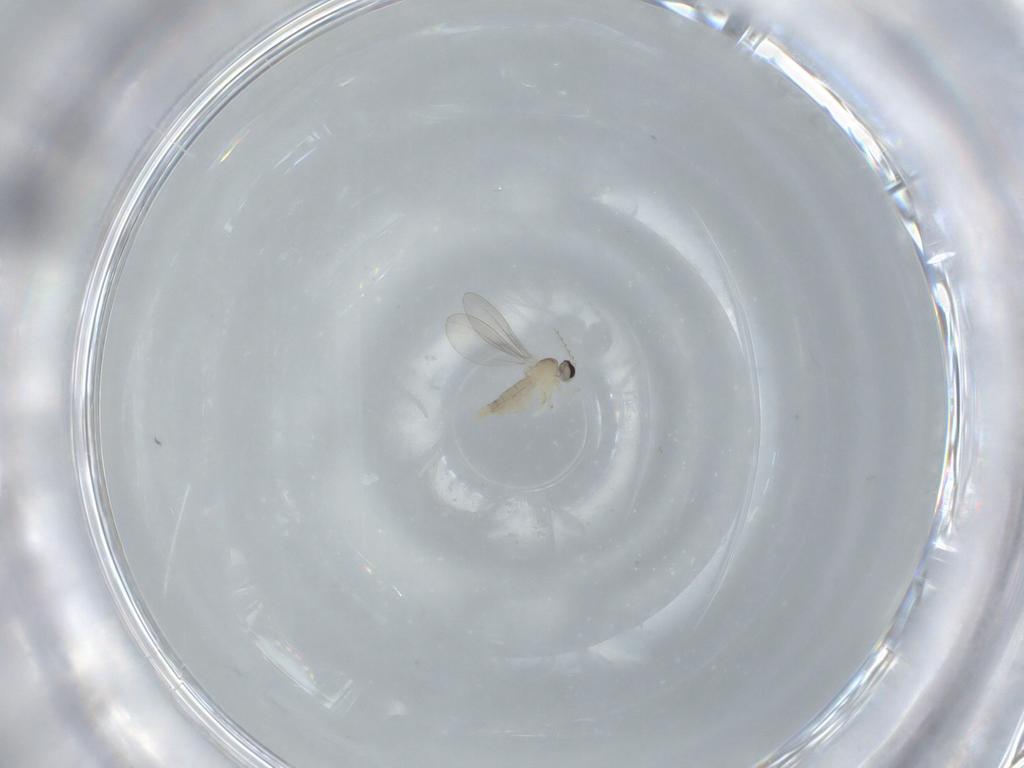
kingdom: Animalia
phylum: Arthropoda
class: Insecta
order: Diptera
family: Cecidomyiidae
